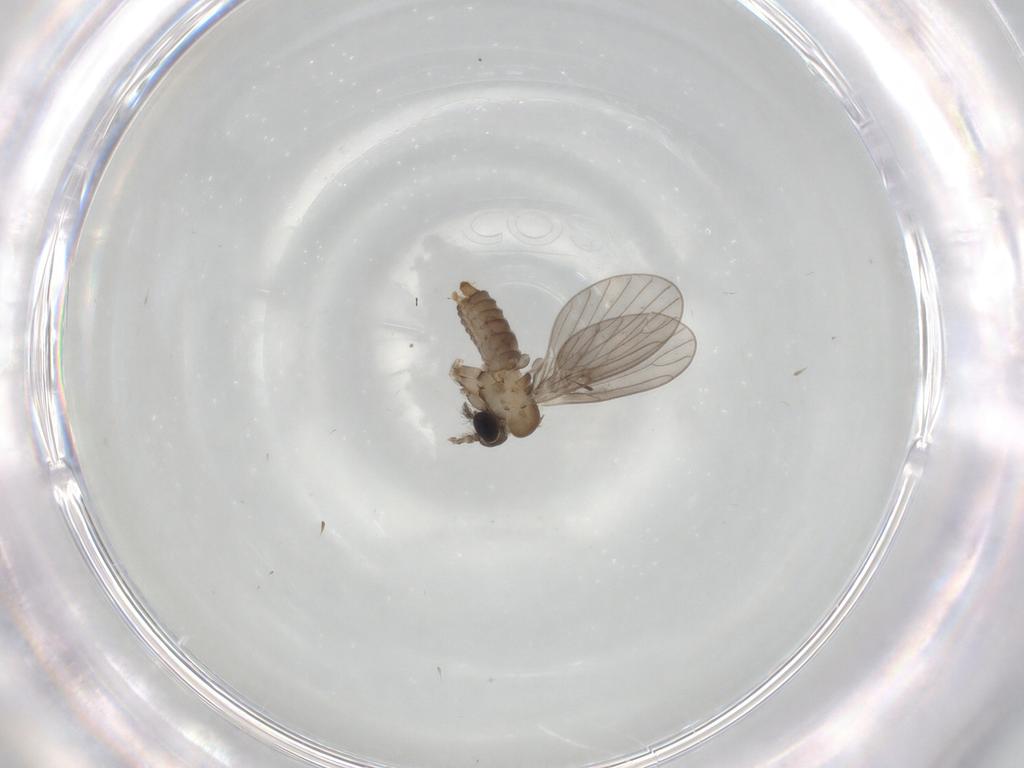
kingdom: Animalia
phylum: Arthropoda
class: Insecta
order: Diptera
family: Psychodidae
